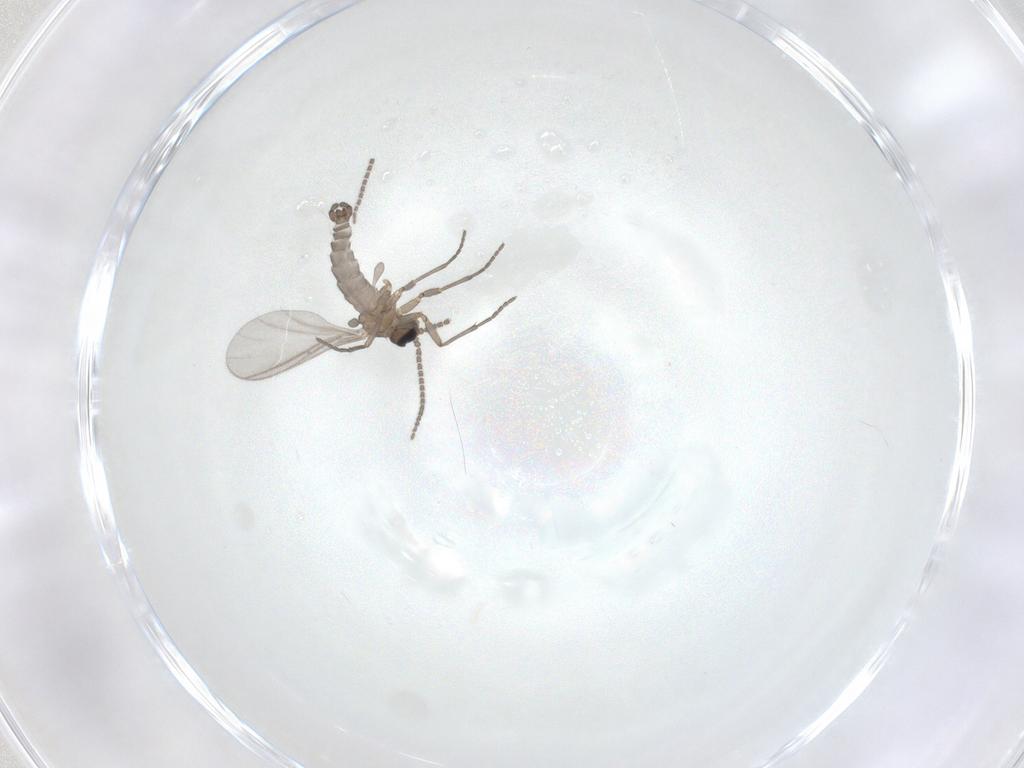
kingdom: Animalia
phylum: Arthropoda
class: Insecta
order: Diptera
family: Sciaridae
